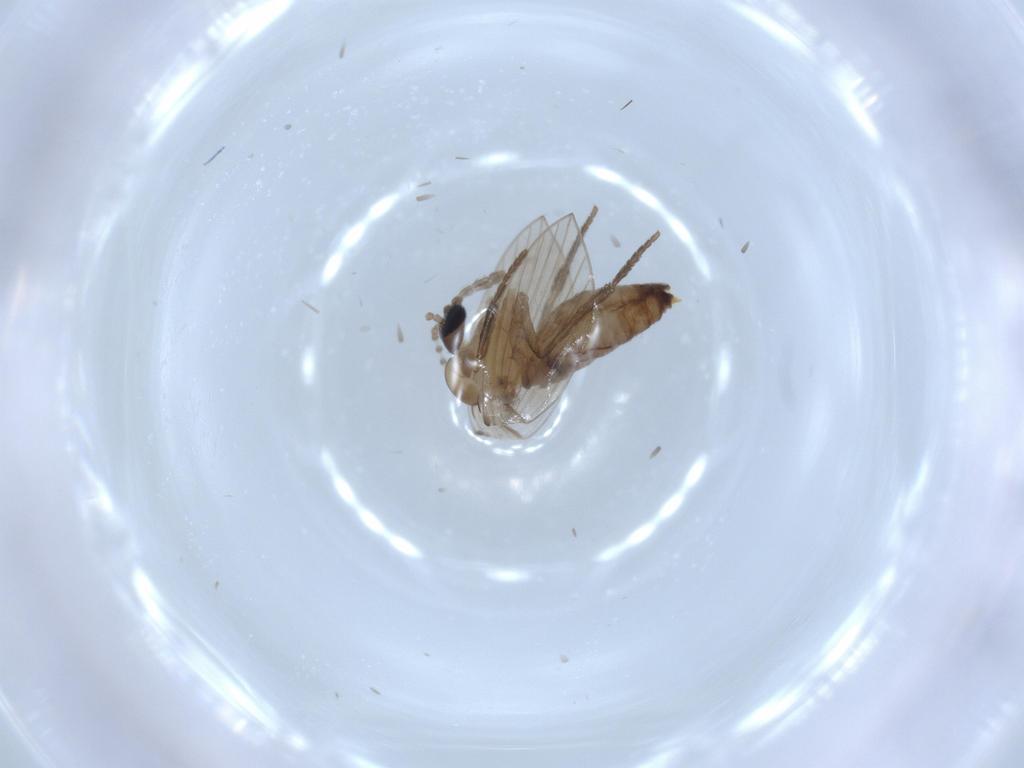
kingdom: Animalia
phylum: Arthropoda
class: Insecta
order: Diptera
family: Psychodidae
